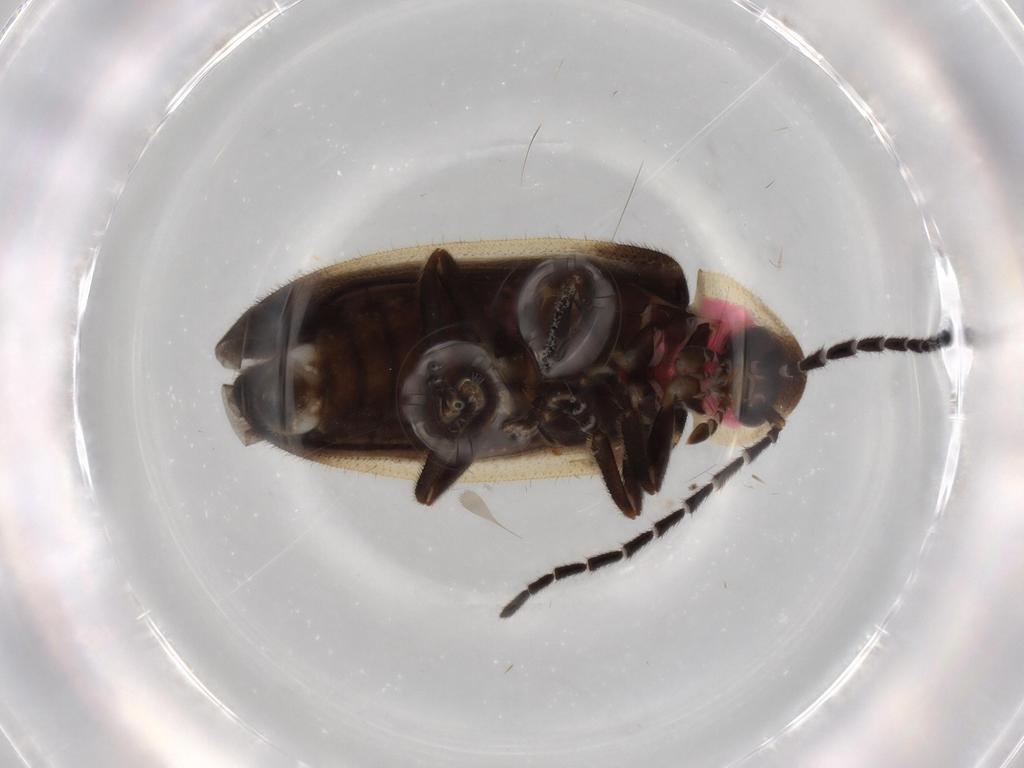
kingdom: Animalia
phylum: Arthropoda
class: Insecta
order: Coleoptera
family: Lampyridae
